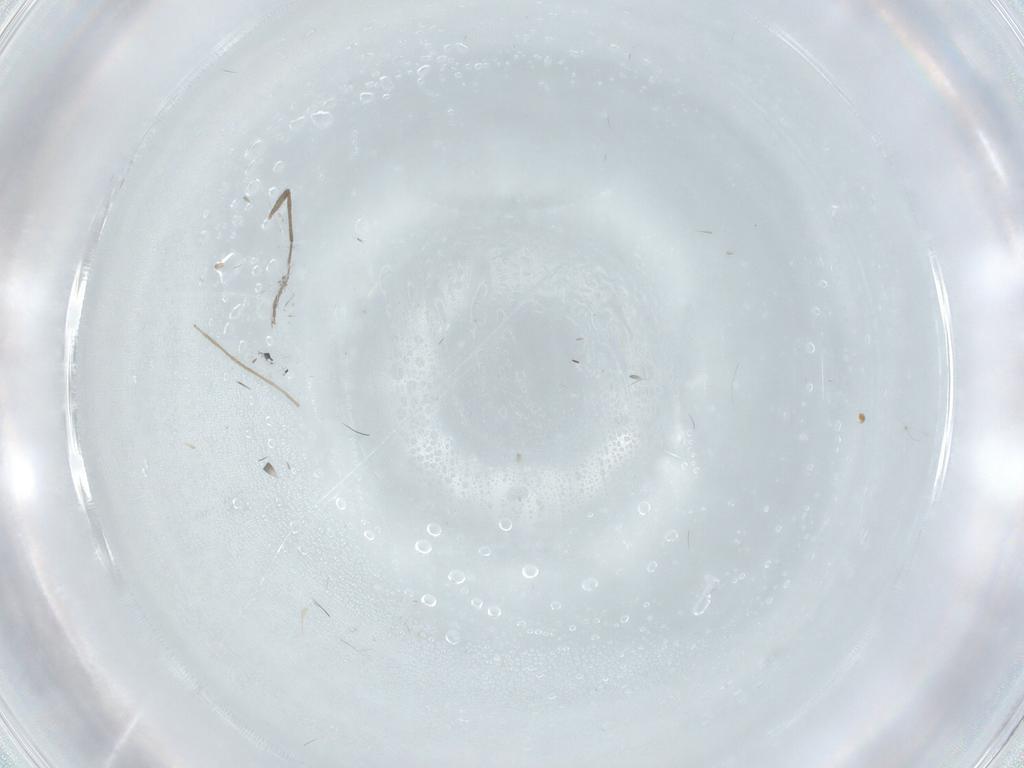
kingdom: Animalia
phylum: Arthropoda
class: Insecta
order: Diptera
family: Chironomidae
